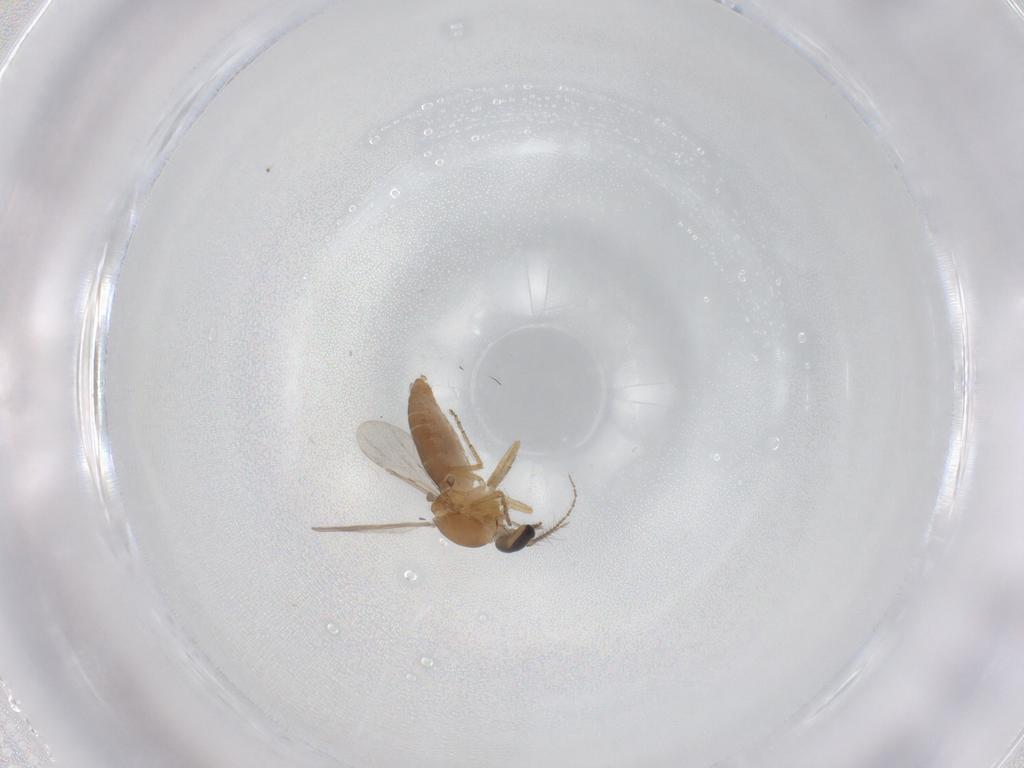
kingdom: Animalia
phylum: Arthropoda
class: Insecta
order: Diptera
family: Ceratopogonidae
